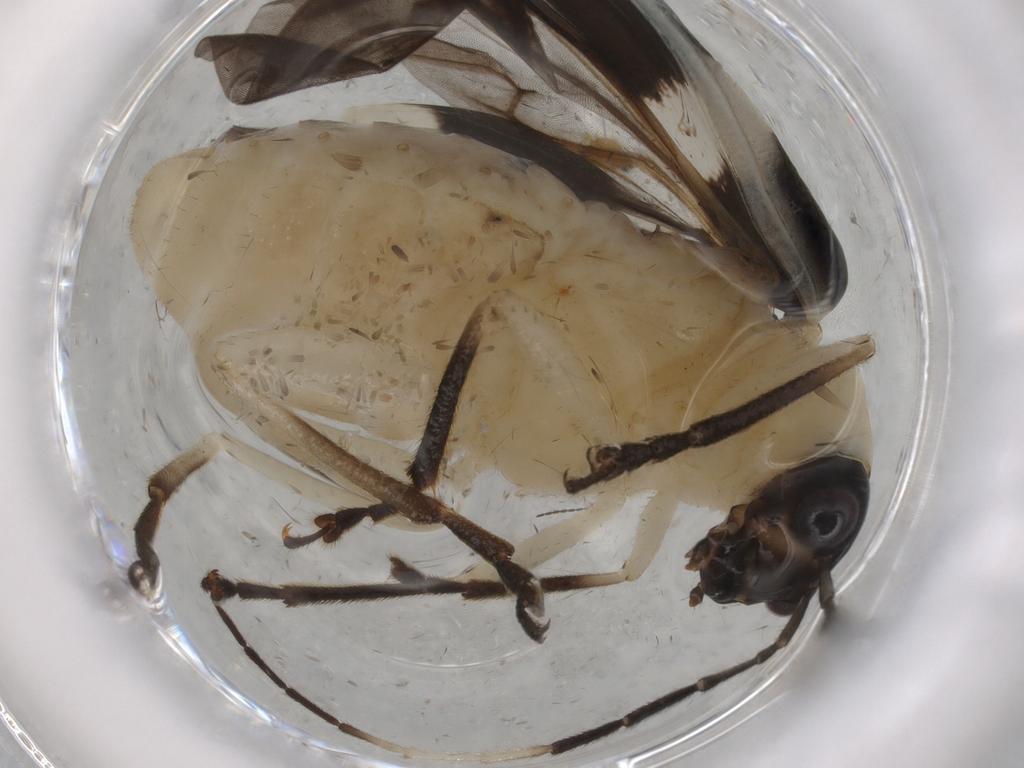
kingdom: Animalia
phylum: Arthropoda
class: Insecta
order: Coleoptera
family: Chrysomelidae
